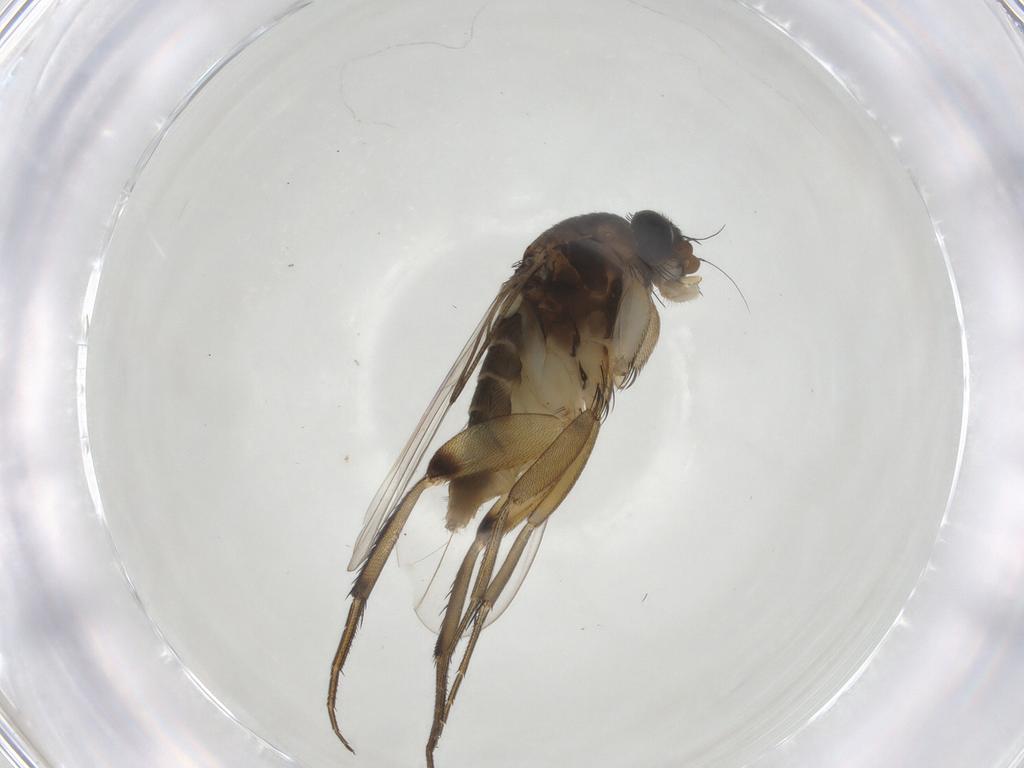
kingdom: Animalia
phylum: Arthropoda
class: Insecta
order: Diptera
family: Phoridae
